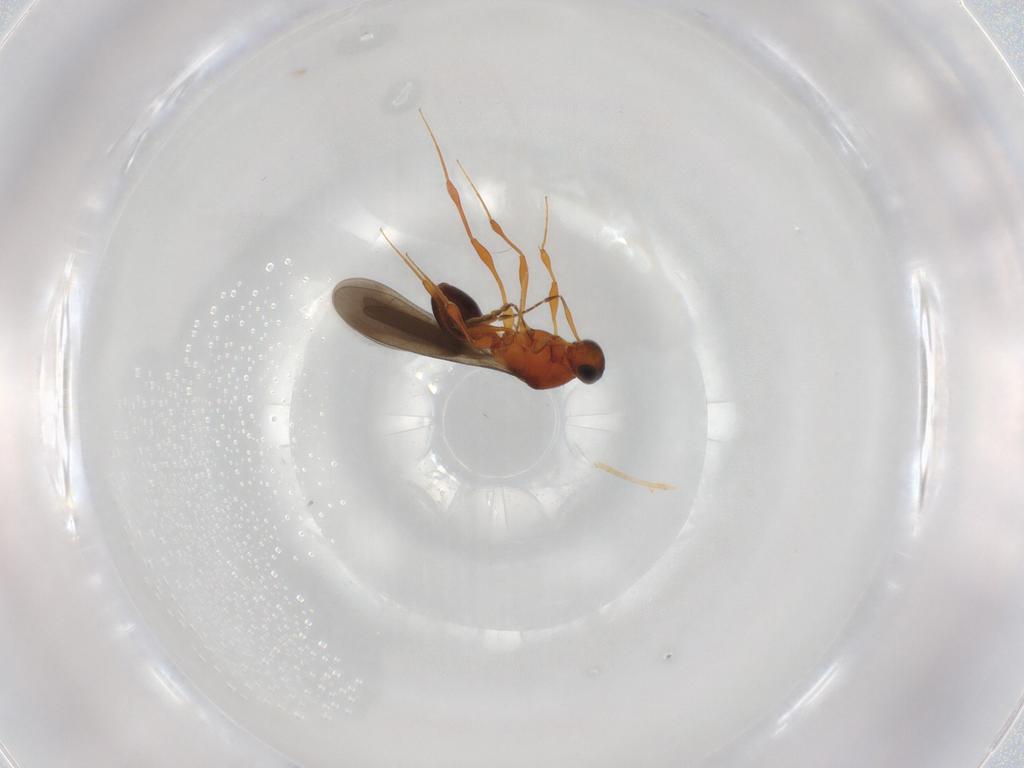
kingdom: Animalia
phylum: Arthropoda
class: Insecta
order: Hymenoptera
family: Platygastridae
